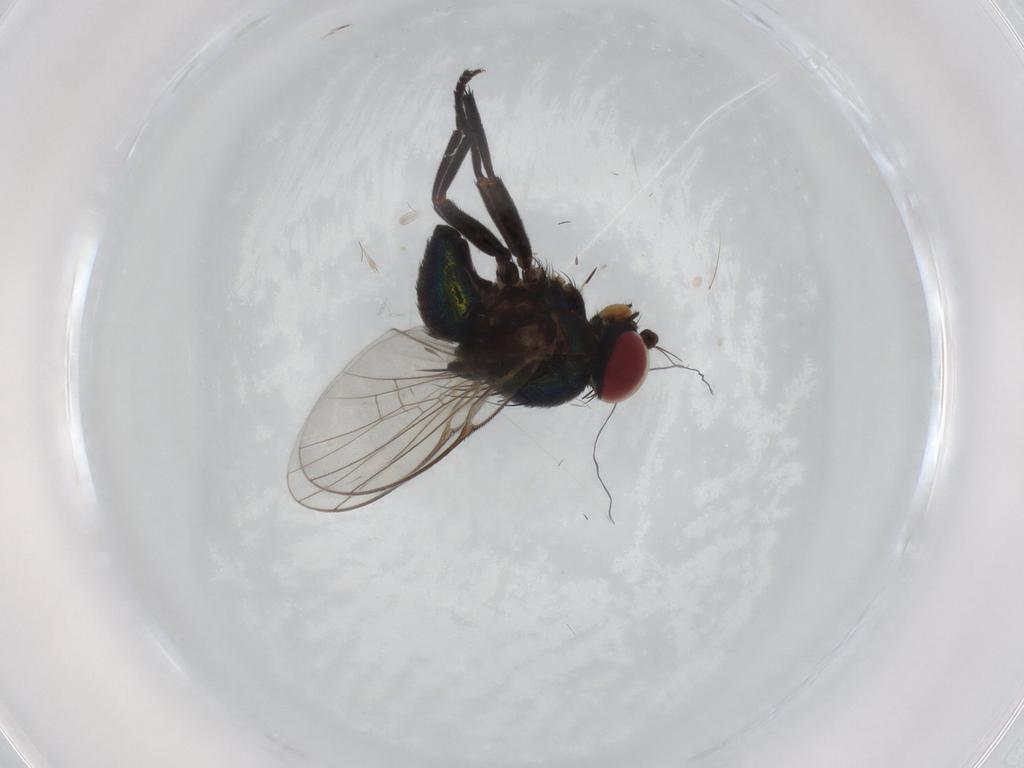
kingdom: Animalia
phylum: Arthropoda
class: Insecta
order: Diptera
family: Agromyzidae
